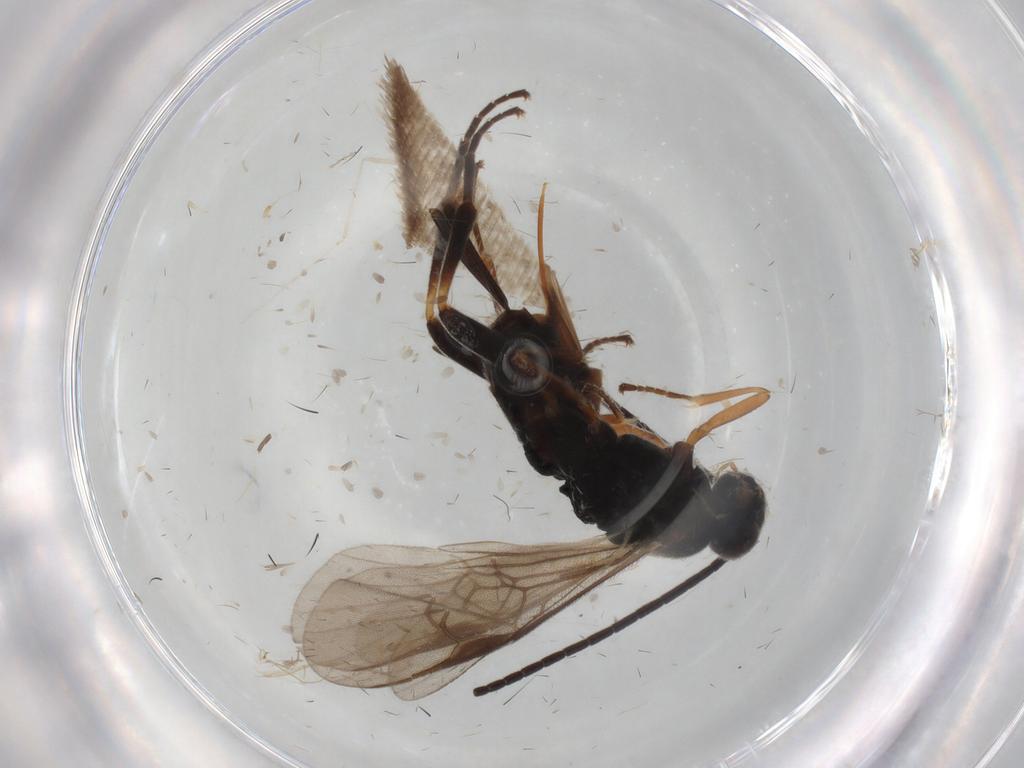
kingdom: Animalia
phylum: Arthropoda
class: Insecta
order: Hymenoptera
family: Braconidae
